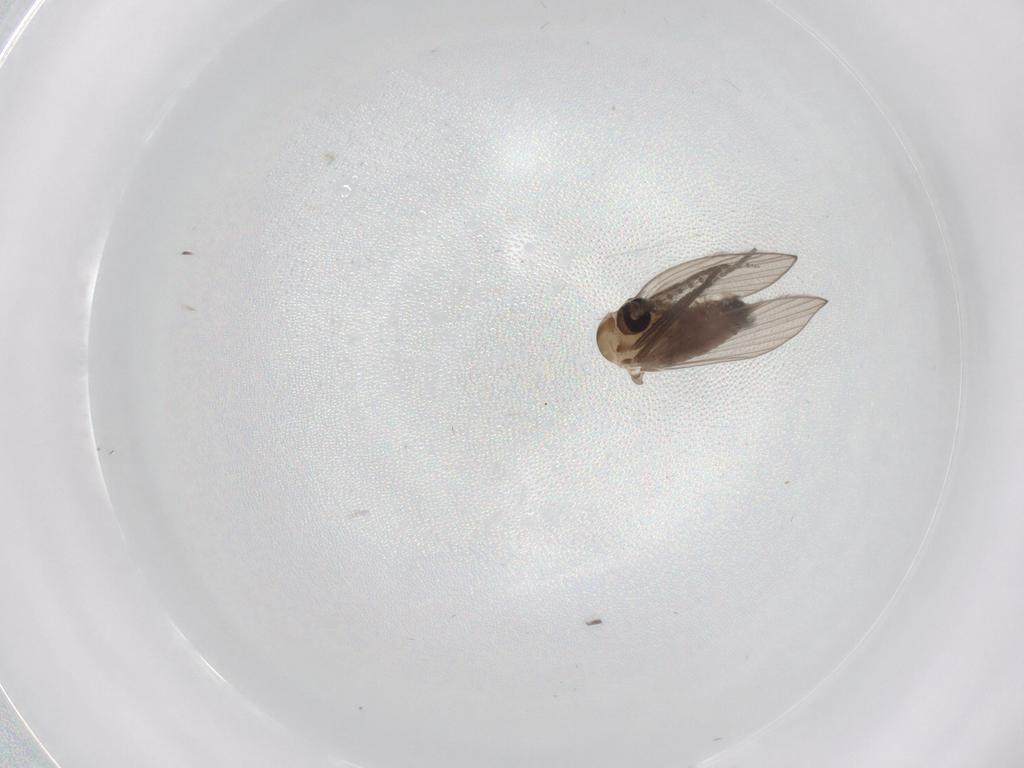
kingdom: Animalia
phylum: Arthropoda
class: Insecta
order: Diptera
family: Psychodidae
